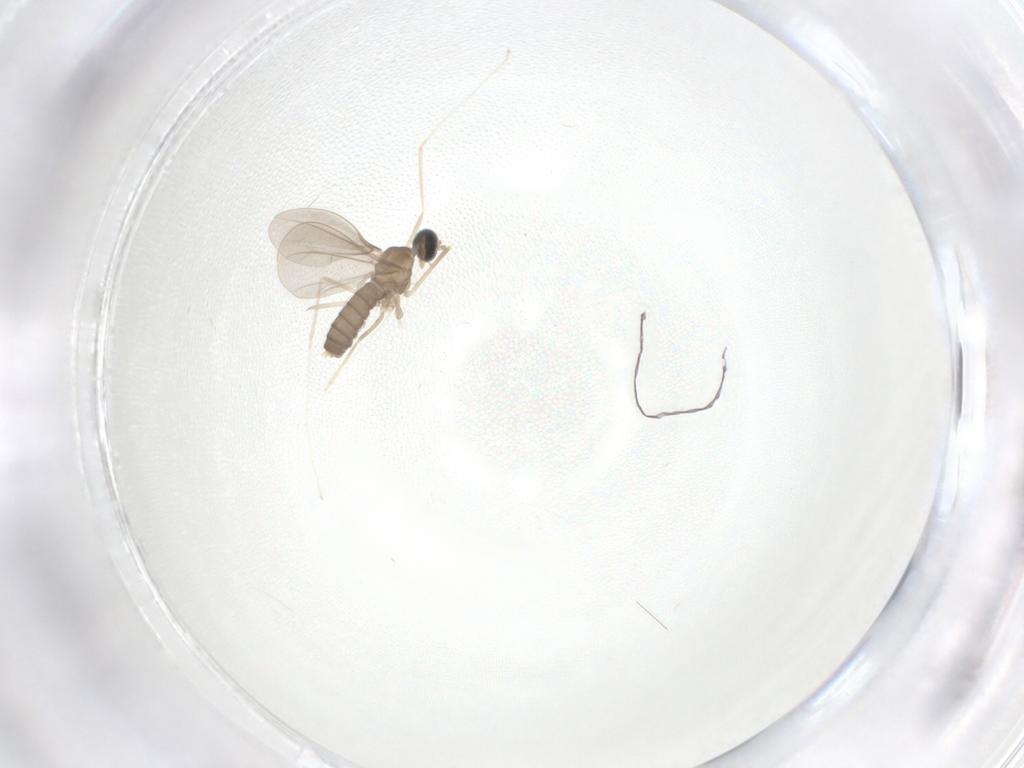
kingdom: Animalia
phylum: Arthropoda
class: Insecta
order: Diptera
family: Cecidomyiidae
